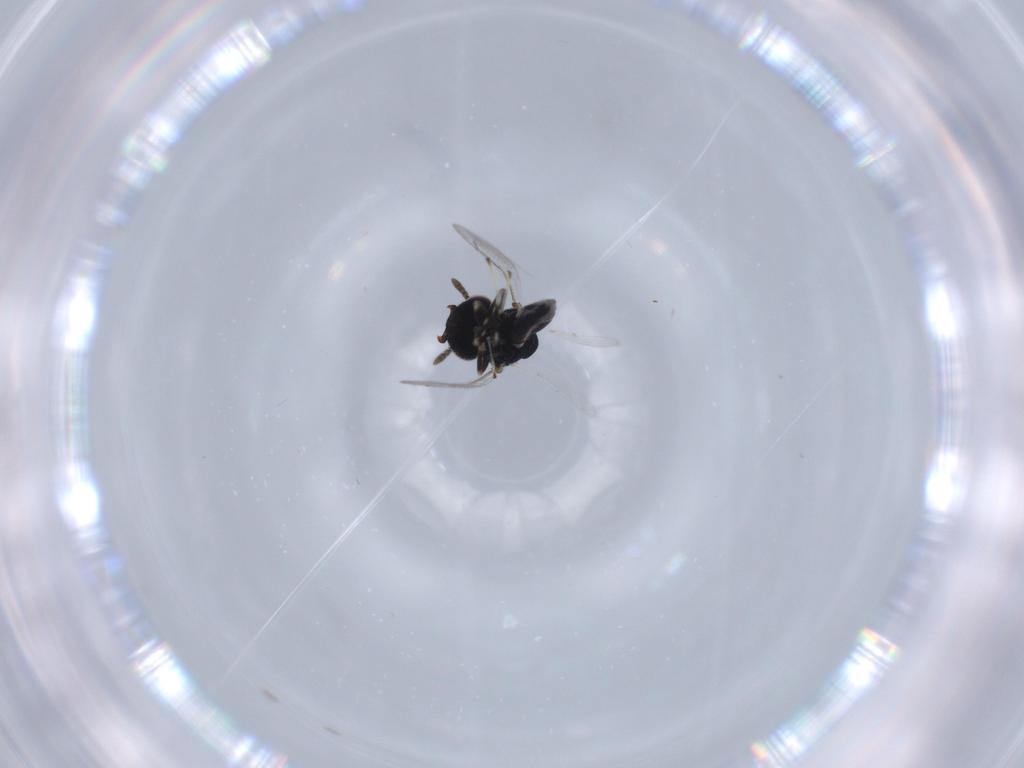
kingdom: Animalia
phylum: Arthropoda
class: Insecta
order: Hymenoptera
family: Pteromalidae
